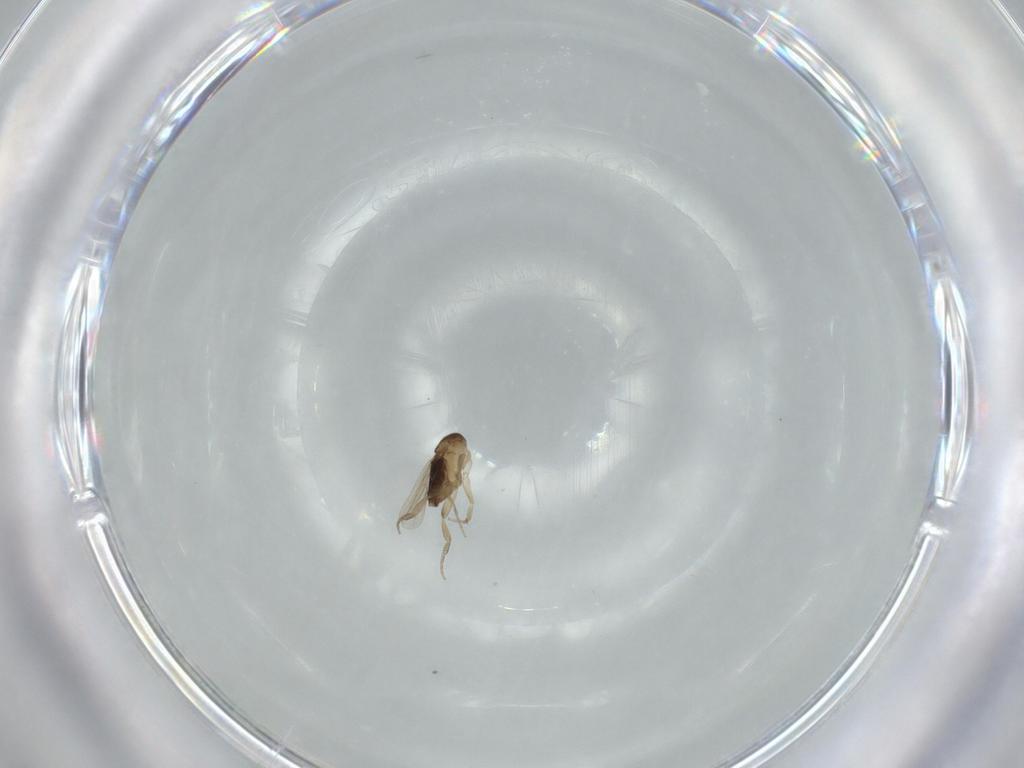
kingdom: Animalia
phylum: Arthropoda
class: Insecta
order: Diptera
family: Phoridae
